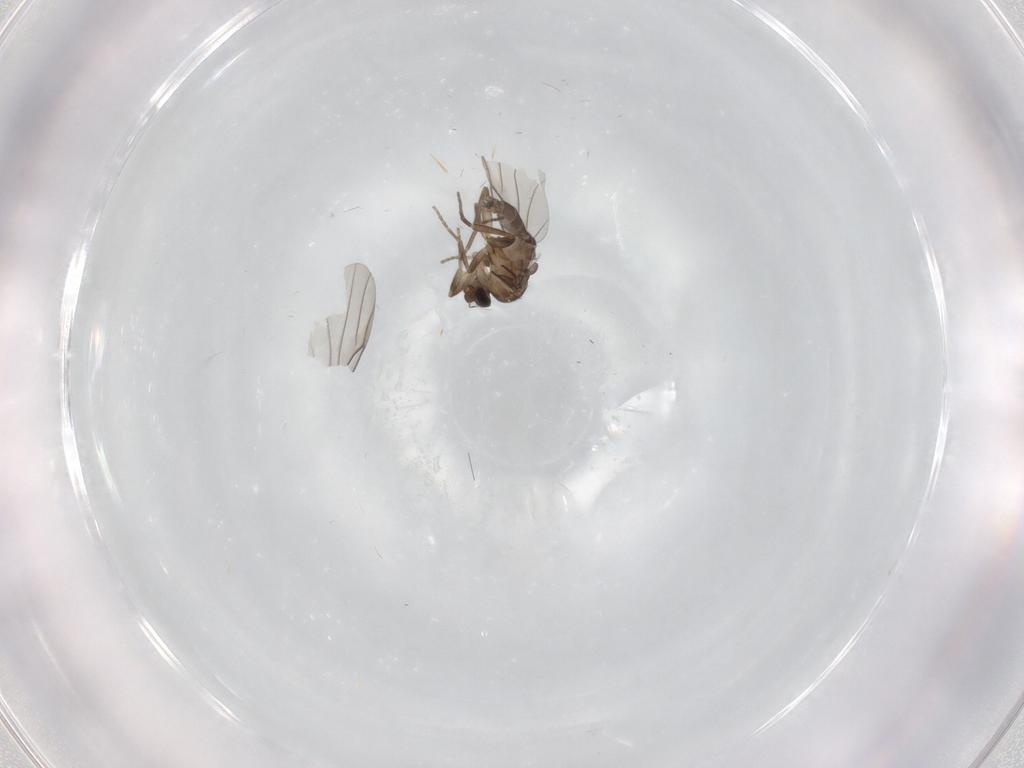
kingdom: Animalia
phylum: Arthropoda
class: Insecta
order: Diptera
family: Phoridae
